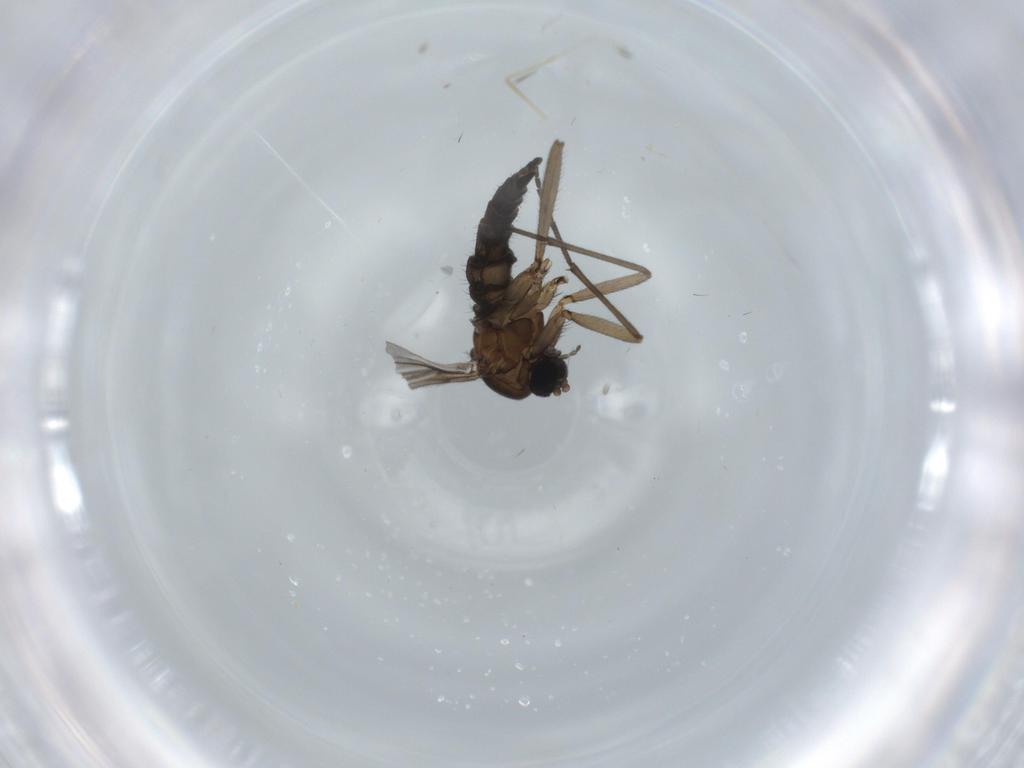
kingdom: Animalia
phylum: Arthropoda
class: Insecta
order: Diptera
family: Sciaridae
